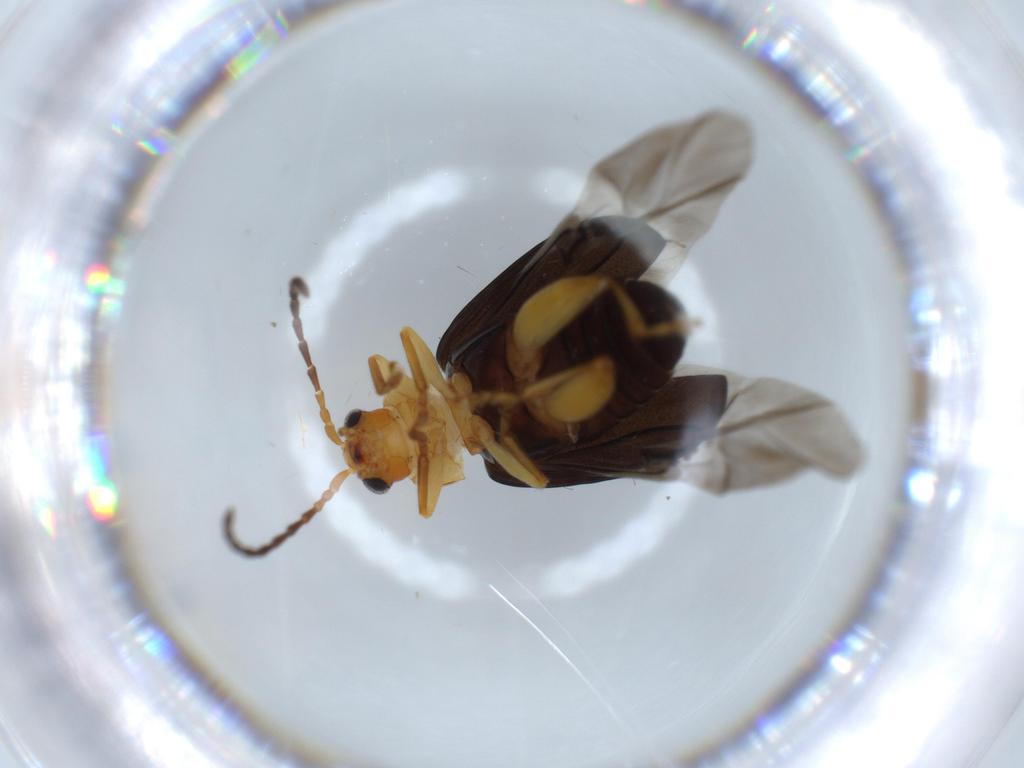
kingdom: Animalia
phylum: Arthropoda
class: Insecta
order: Coleoptera
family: Chrysomelidae
